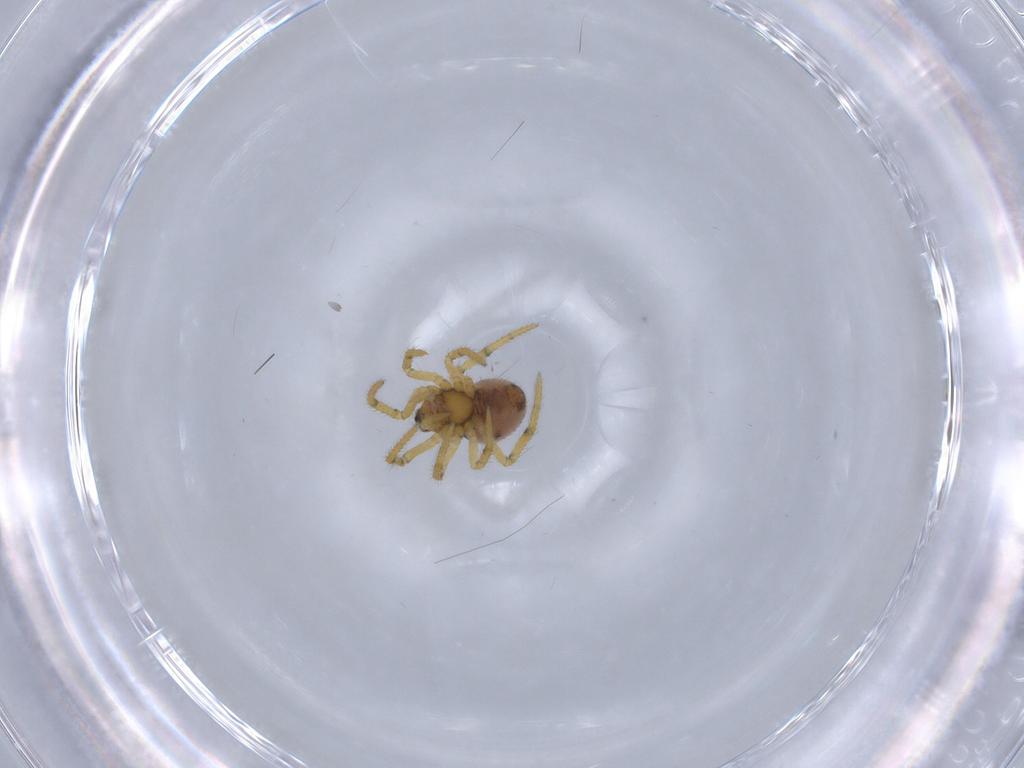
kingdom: Animalia
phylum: Arthropoda
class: Arachnida
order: Araneae
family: Theridiidae
